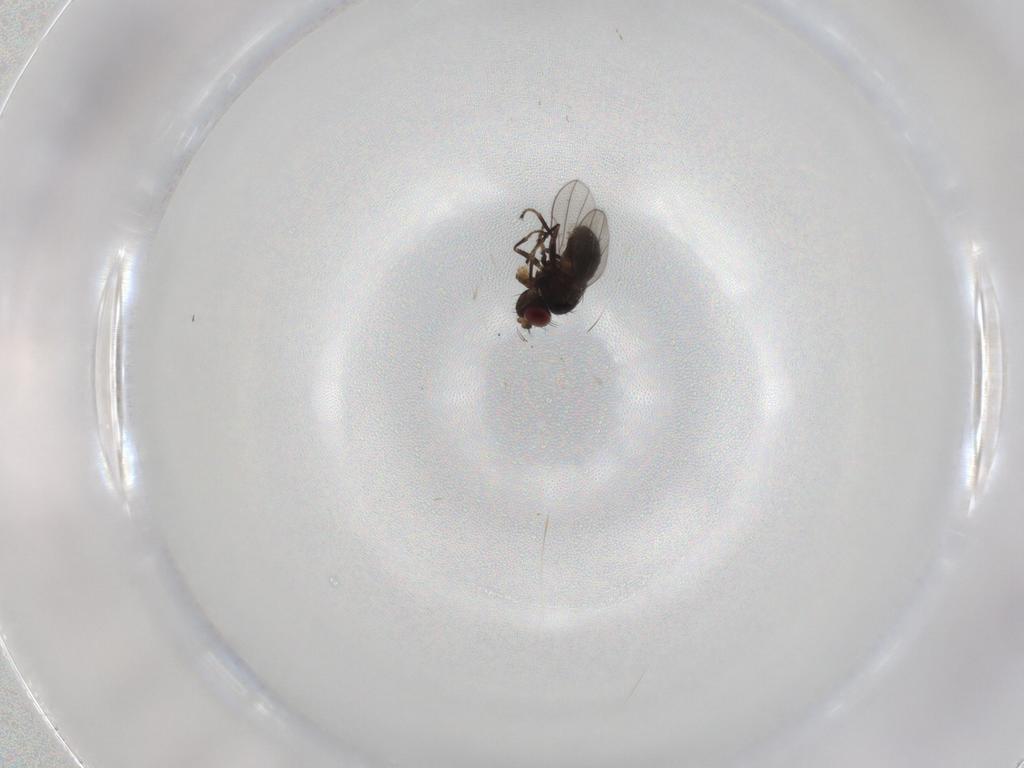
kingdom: Animalia
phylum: Arthropoda
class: Insecta
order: Diptera
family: Ephydridae
